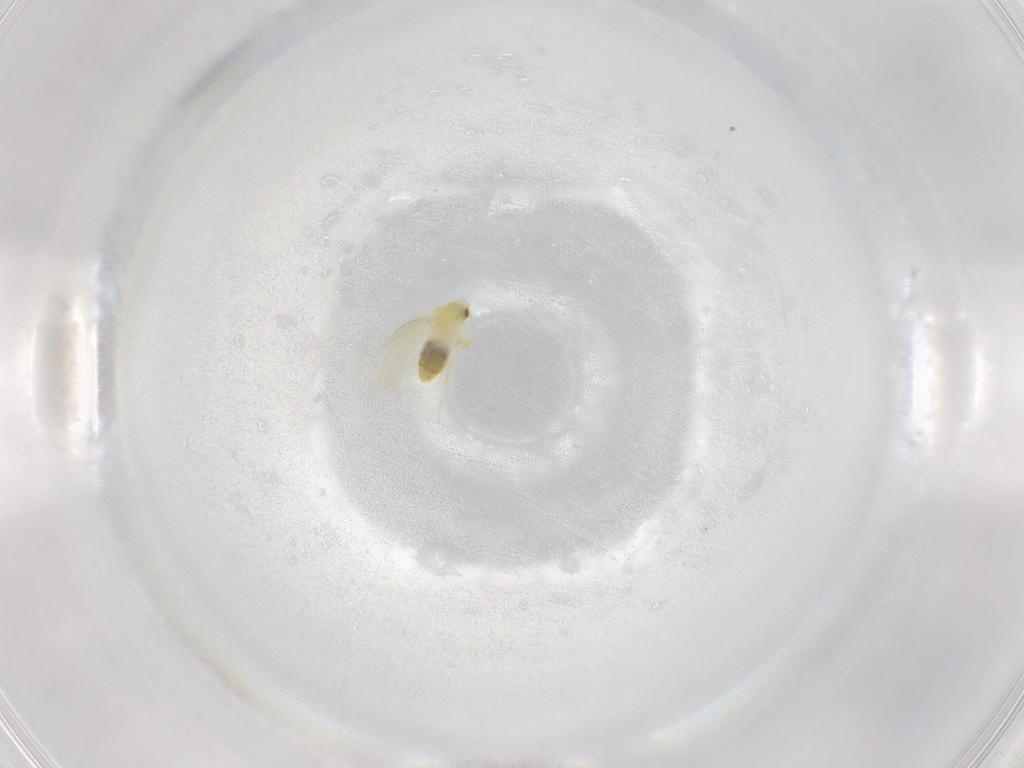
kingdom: Animalia
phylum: Arthropoda
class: Insecta
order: Hemiptera
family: Aleyrodidae
